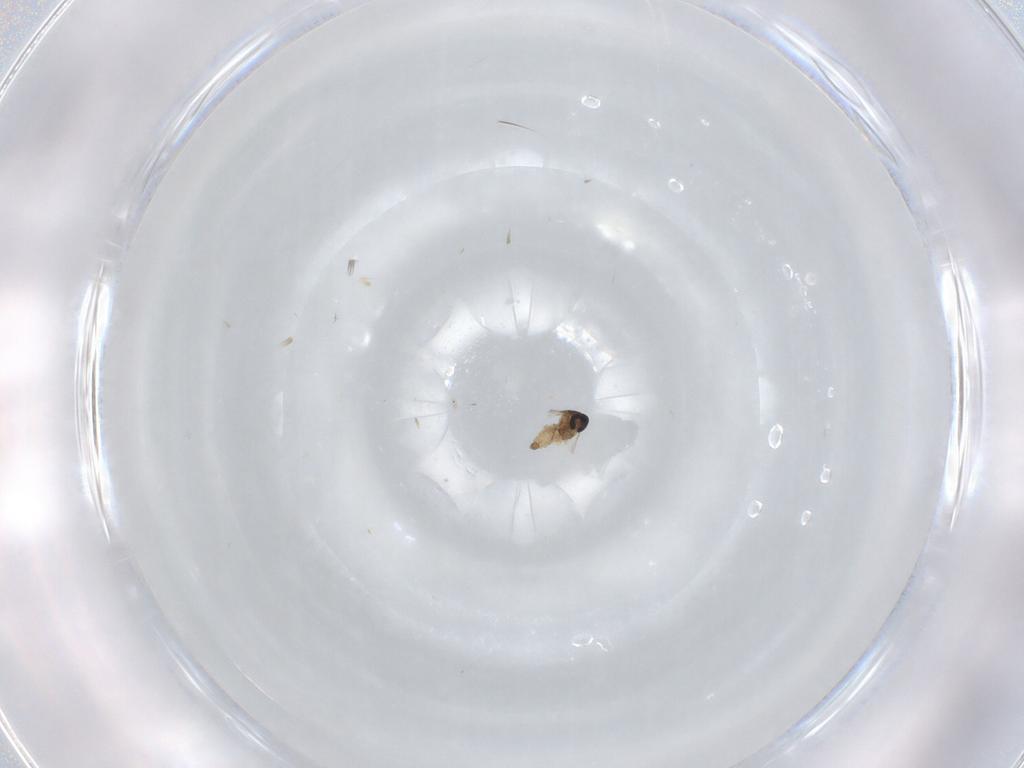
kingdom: Animalia
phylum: Arthropoda
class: Insecta
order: Diptera
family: Cecidomyiidae
